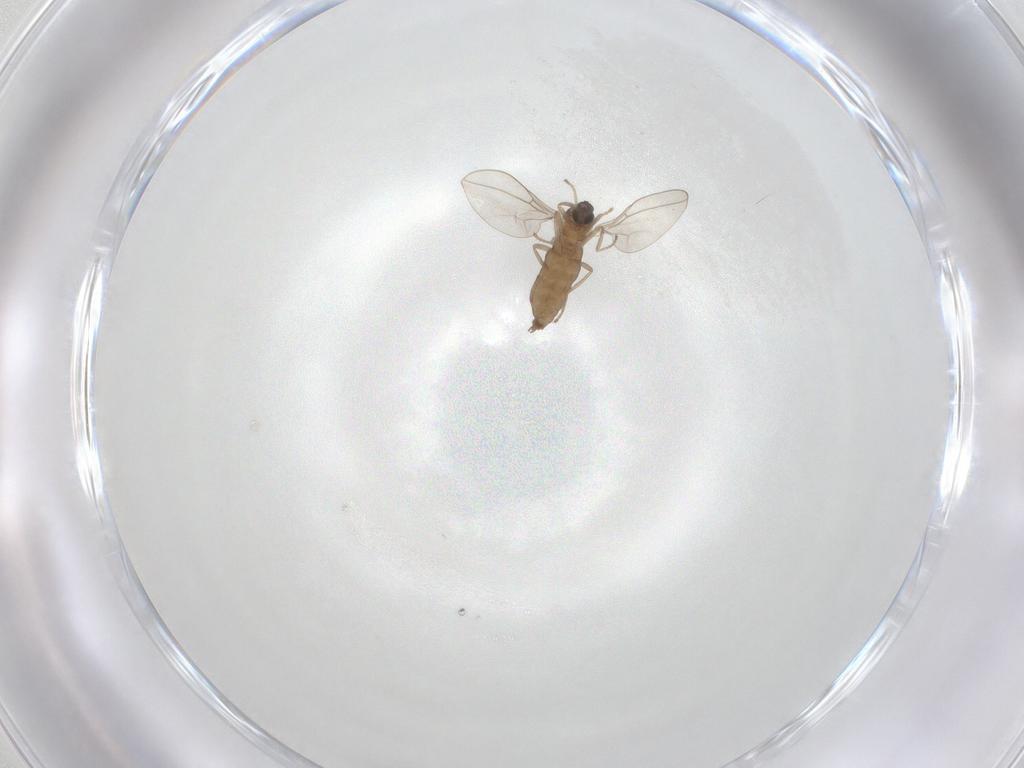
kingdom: Animalia
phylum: Arthropoda
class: Insecta
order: Diptera
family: Cecidomyiidae
